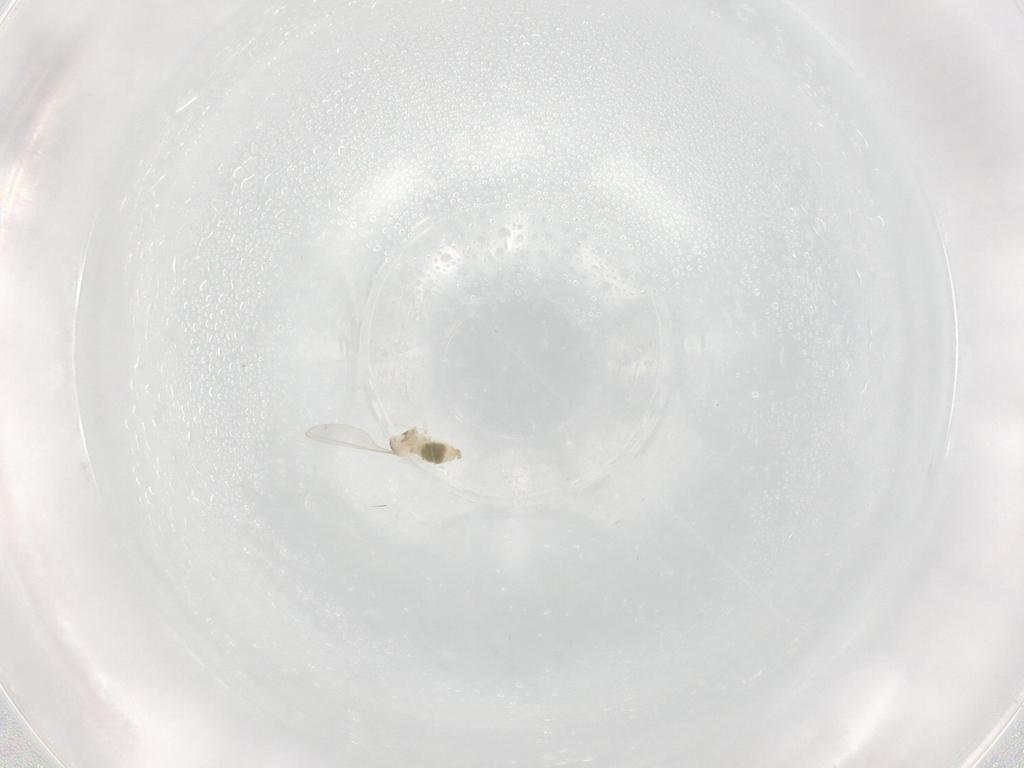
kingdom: Animalia
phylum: Arthropoda
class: Insecta
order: Diptera
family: Cecidomyiidae
